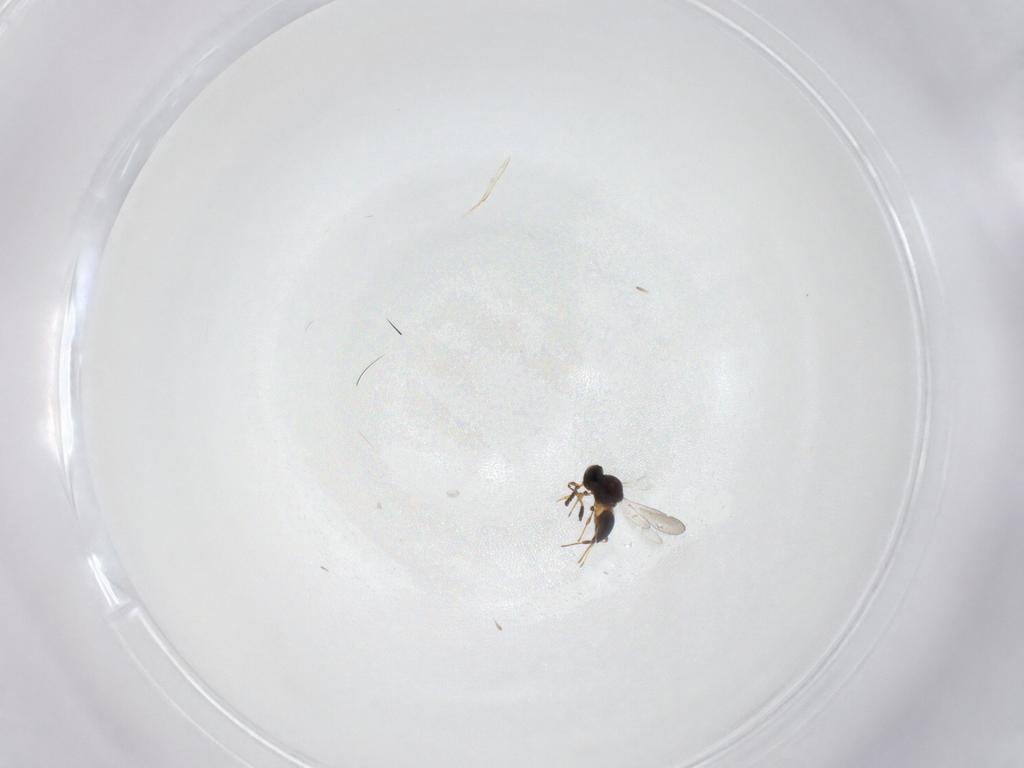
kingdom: Animalia
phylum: Arthropoda
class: Insecta
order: Hymenoptera
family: Platygastridae
